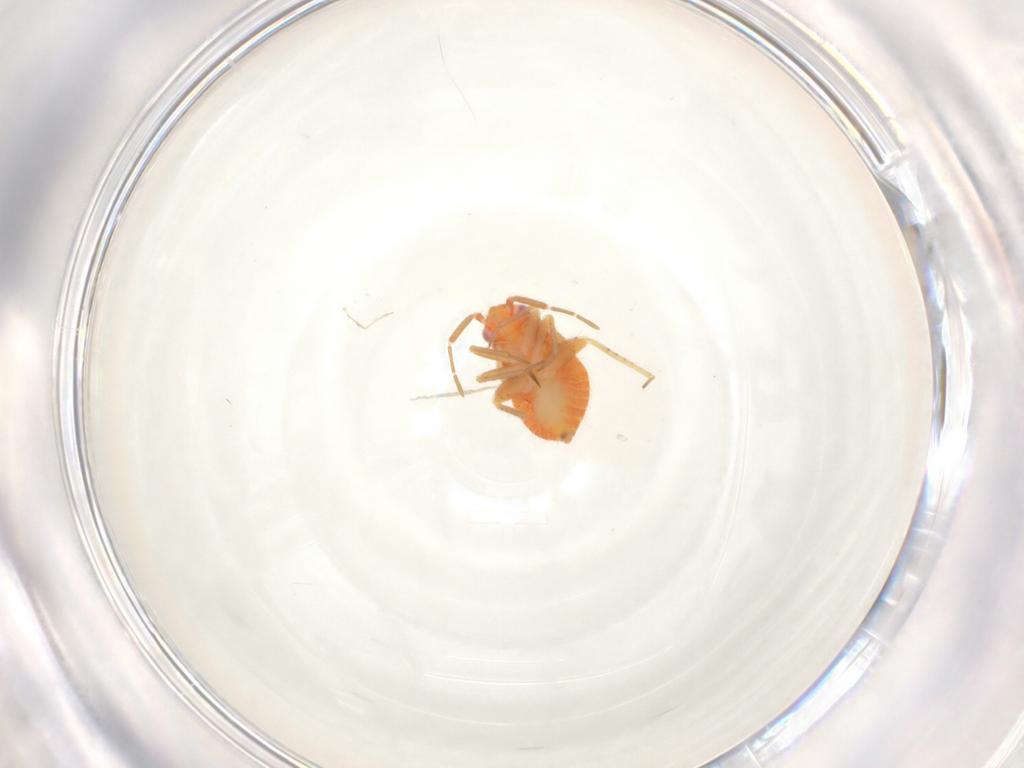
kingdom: Animalia
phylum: Arthropoda
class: Insecta
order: Hemiptera
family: Miridae
